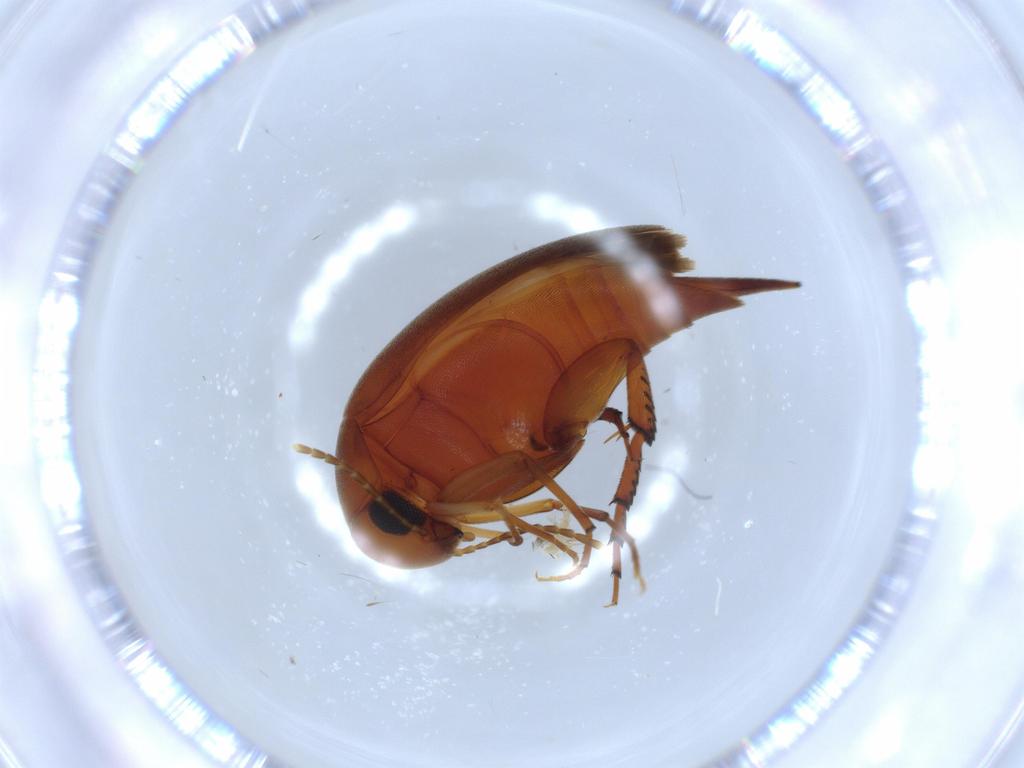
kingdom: Animalia
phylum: Arthropoda
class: Insecta
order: Coleoptera
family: Mordellidae
